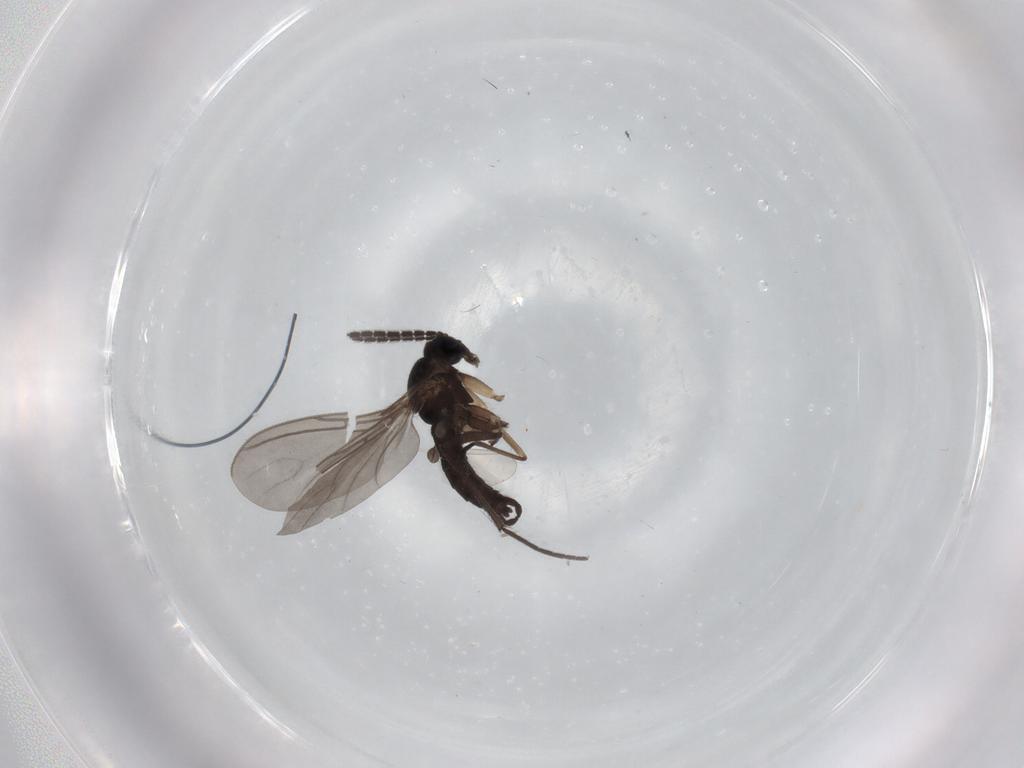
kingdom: Animalia
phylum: Arthropoda
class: Insecta
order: Diptera
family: Sciaridae
